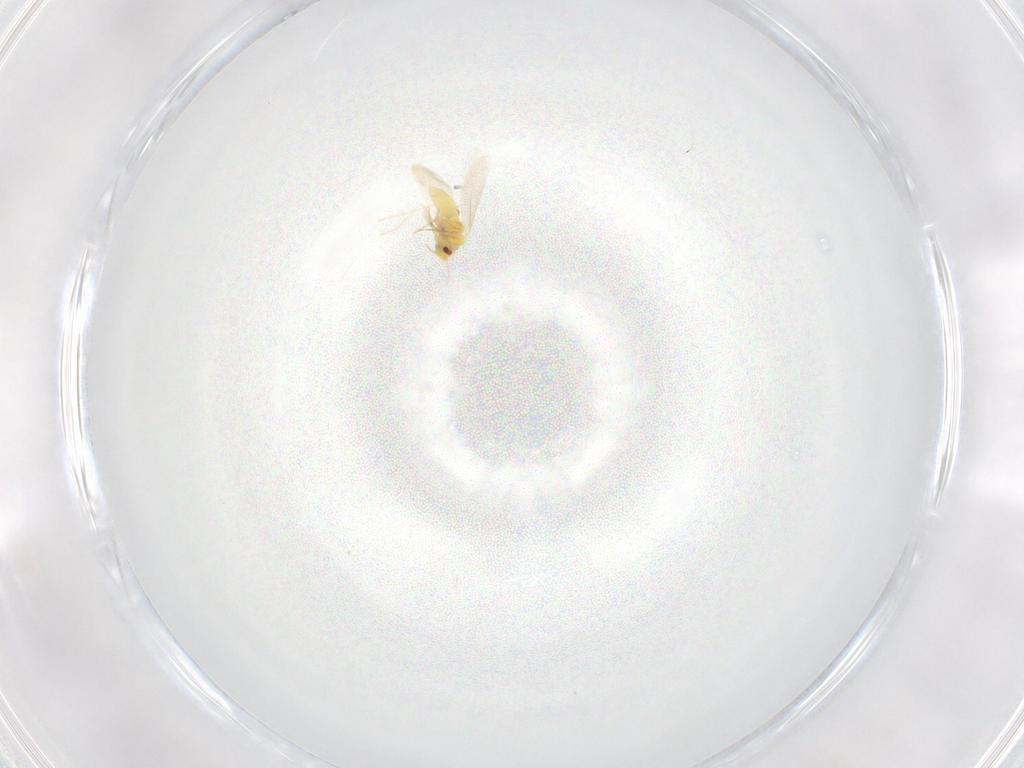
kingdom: Animalia
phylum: Arthropoda
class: Insecta
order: Hemiptera
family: Aleyrodidae
